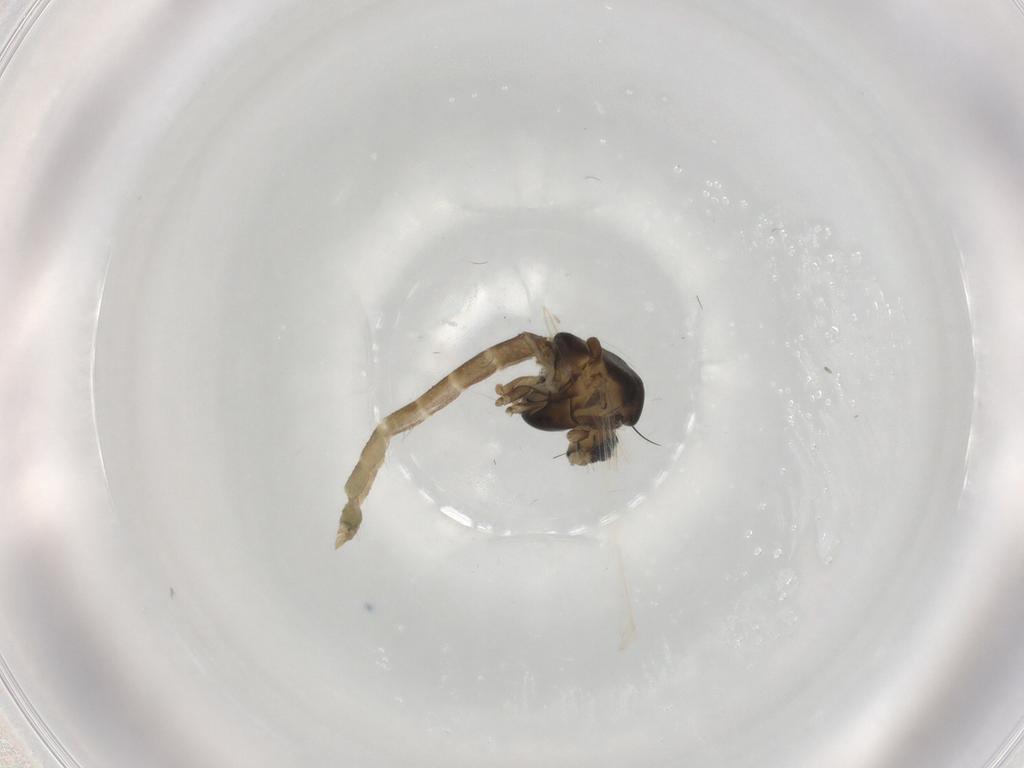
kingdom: Animalia
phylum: Arthropoda
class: Insecta
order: Diptera
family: Chironomidae
